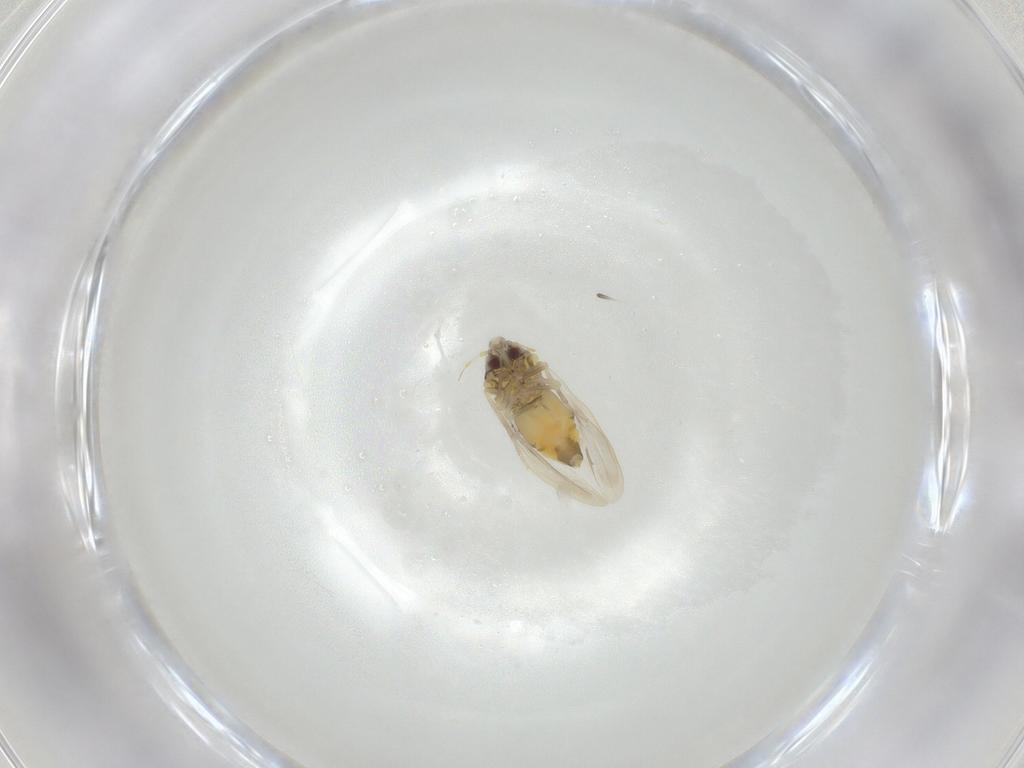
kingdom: Animalia
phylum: Arthropoda
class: Insecta
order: Hemiptera
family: Aleyrodidae
